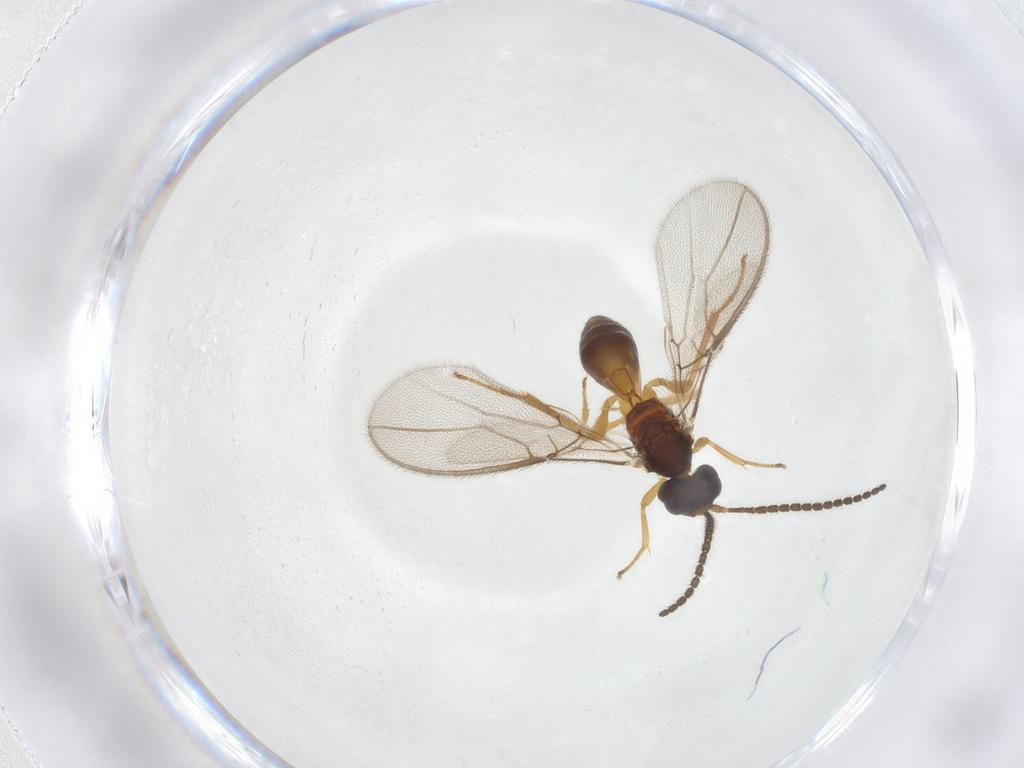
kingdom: Animalia
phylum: Arthropoda
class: Insecta
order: Hymenoptera
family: Braconidae
